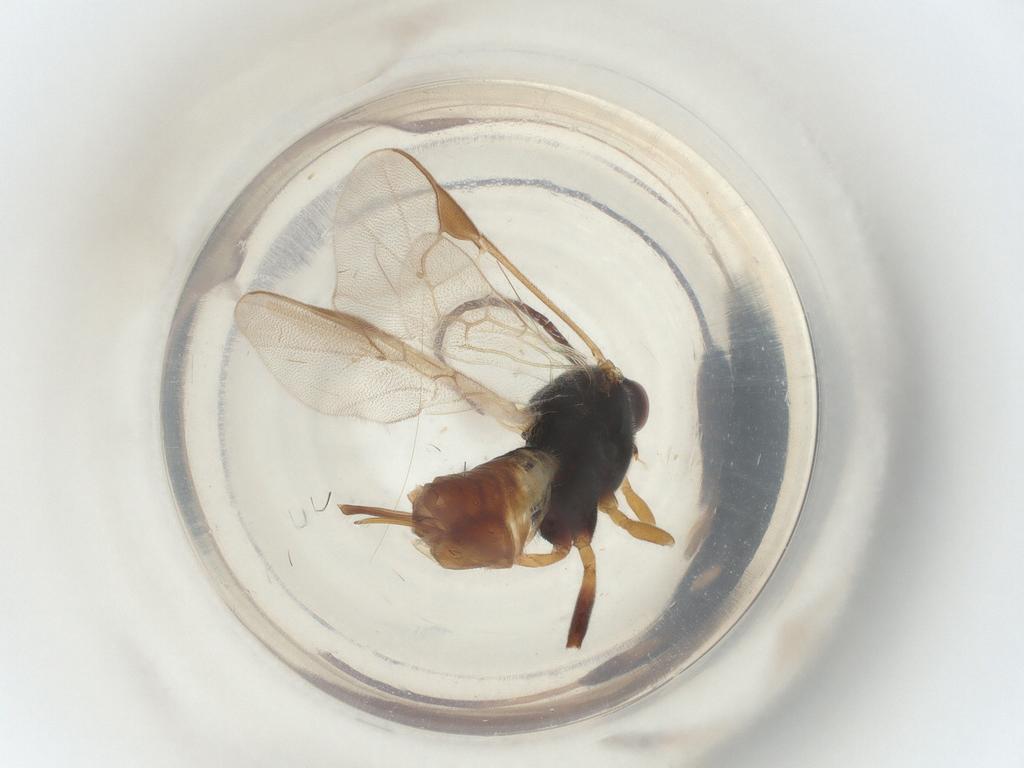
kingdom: Animalia
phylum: Arthropoda
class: Insecta
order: Hymenoptera
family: Braconidae
